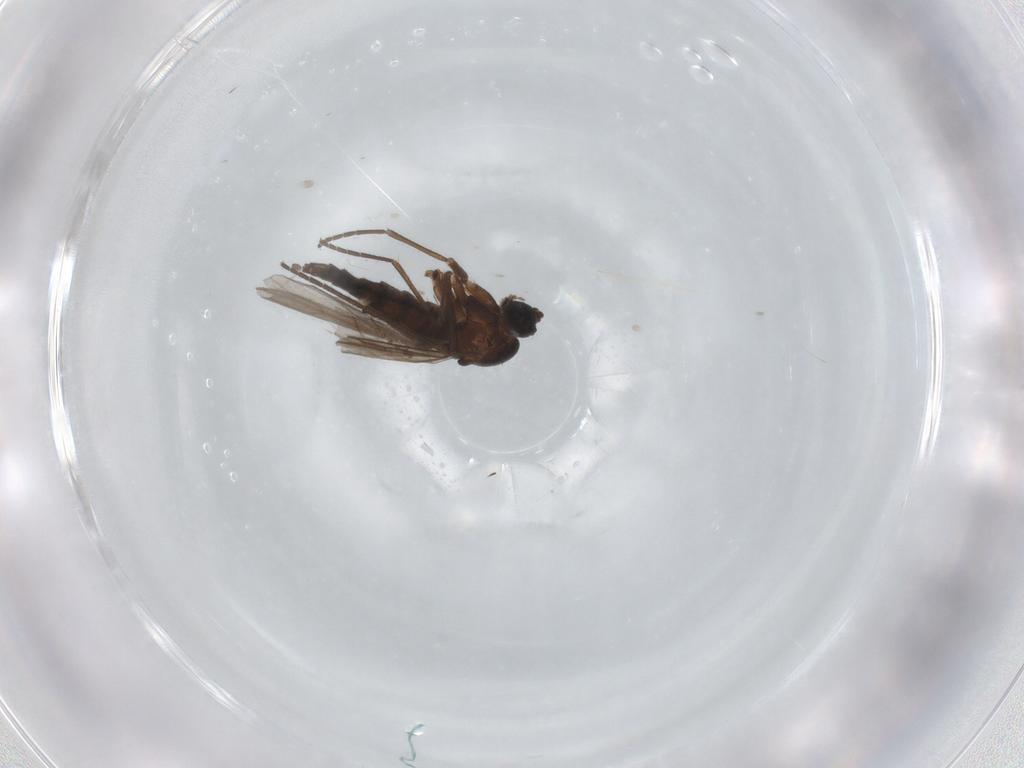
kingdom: Animalia
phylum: Arthropoda
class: Insecta
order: Diptera
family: Sciaridae
